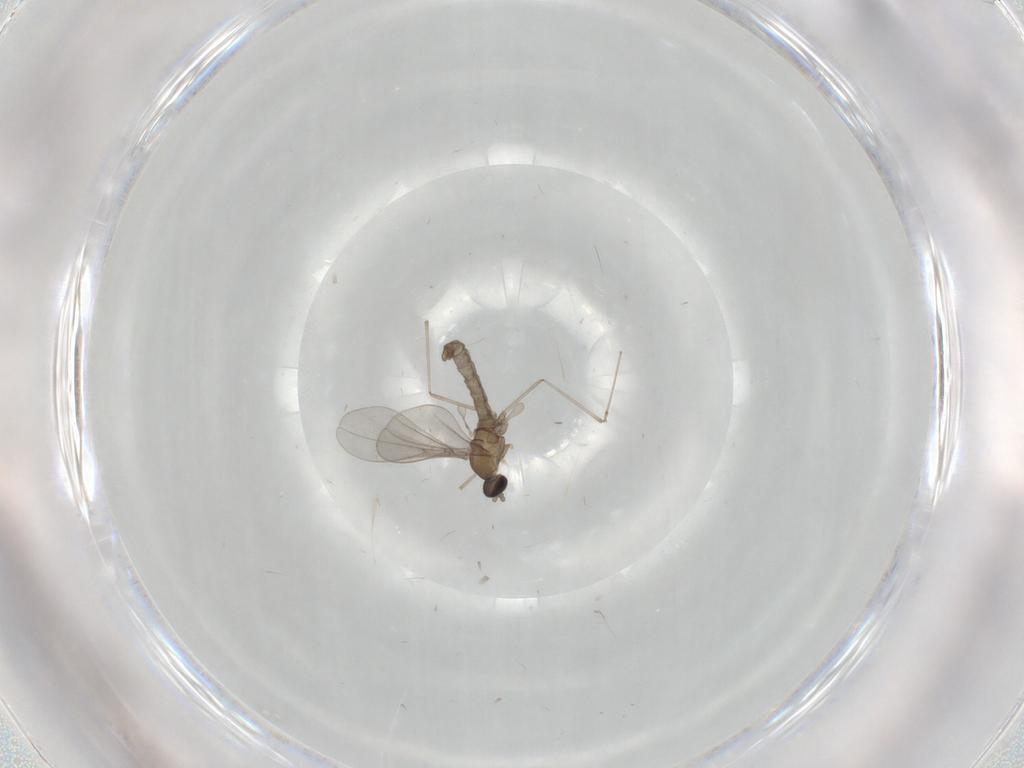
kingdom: Animalia
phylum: Arthropoda
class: Insecta
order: Diptera
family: Cecidomyiidae
